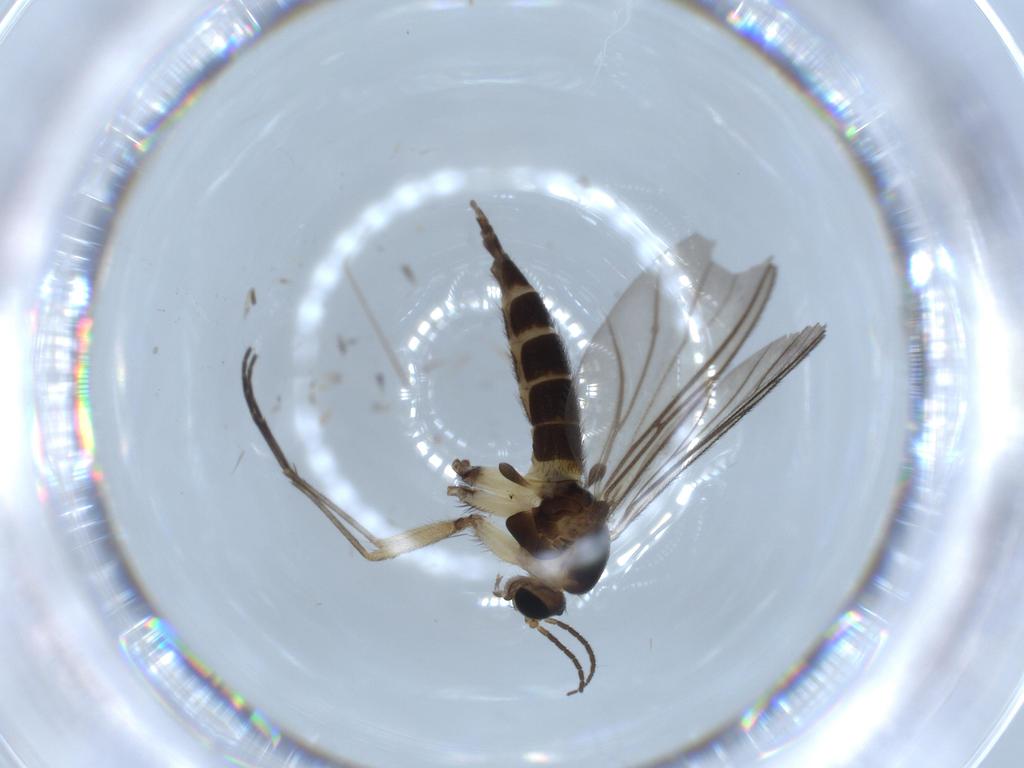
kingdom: Animalia
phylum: Arthropoda
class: Insecta
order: Diptera
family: Sciaridae
